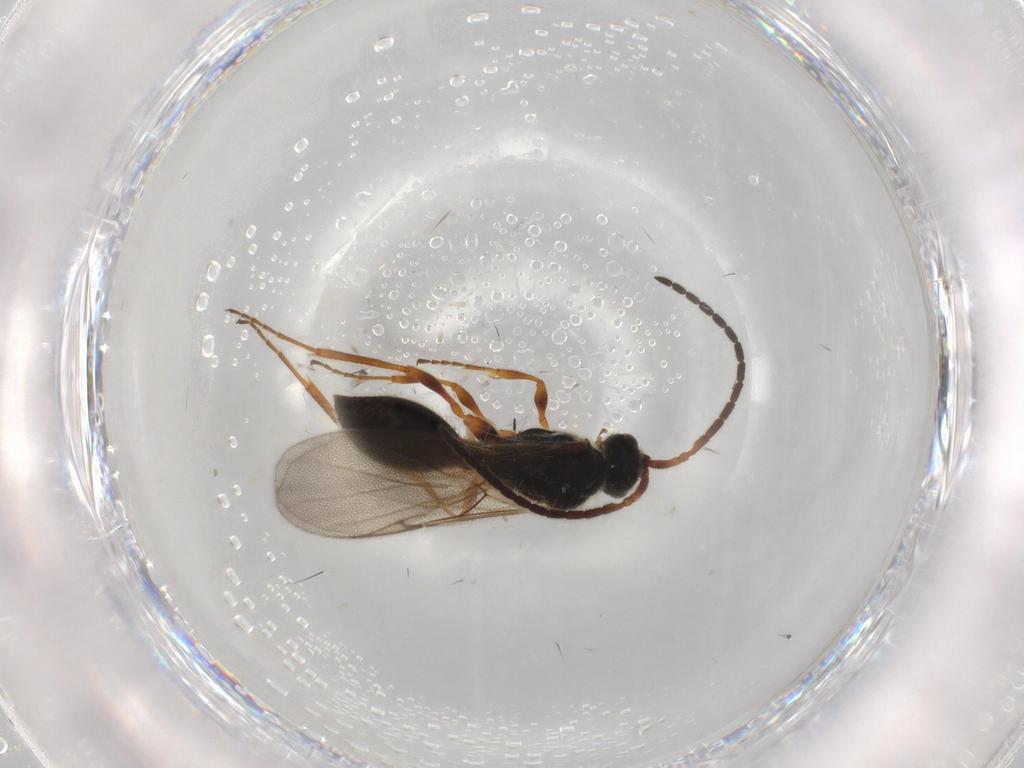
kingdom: Animalia
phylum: Arthropoda
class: Insecta
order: Hymenoptera
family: Diapriidae
